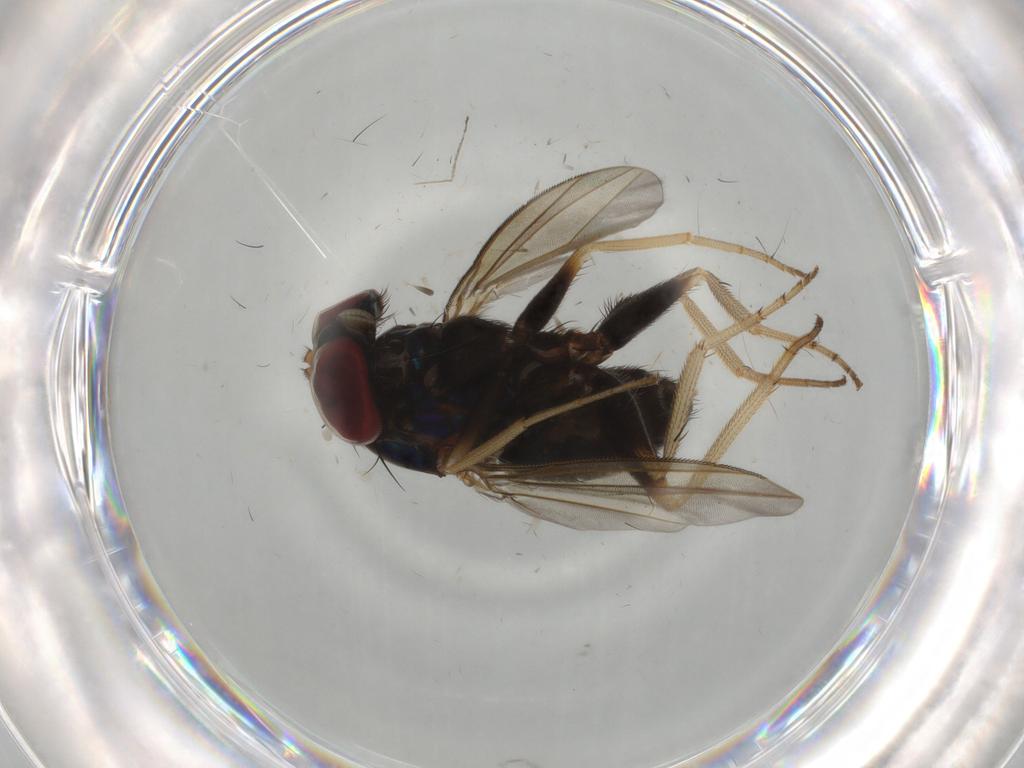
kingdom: Animalia
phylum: Arthropoda
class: Insecta
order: Diptera
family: Dolichopodidae
